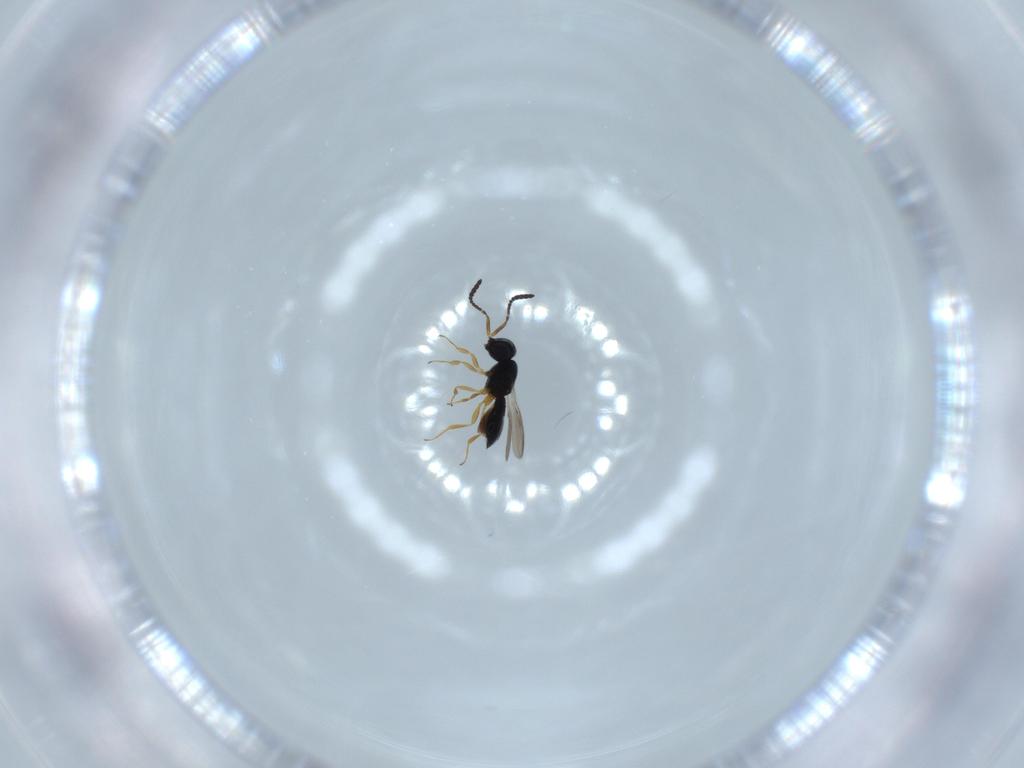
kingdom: Animalia
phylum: Arthropoda
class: Insecta
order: Hymenoptera
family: Scelionidae
